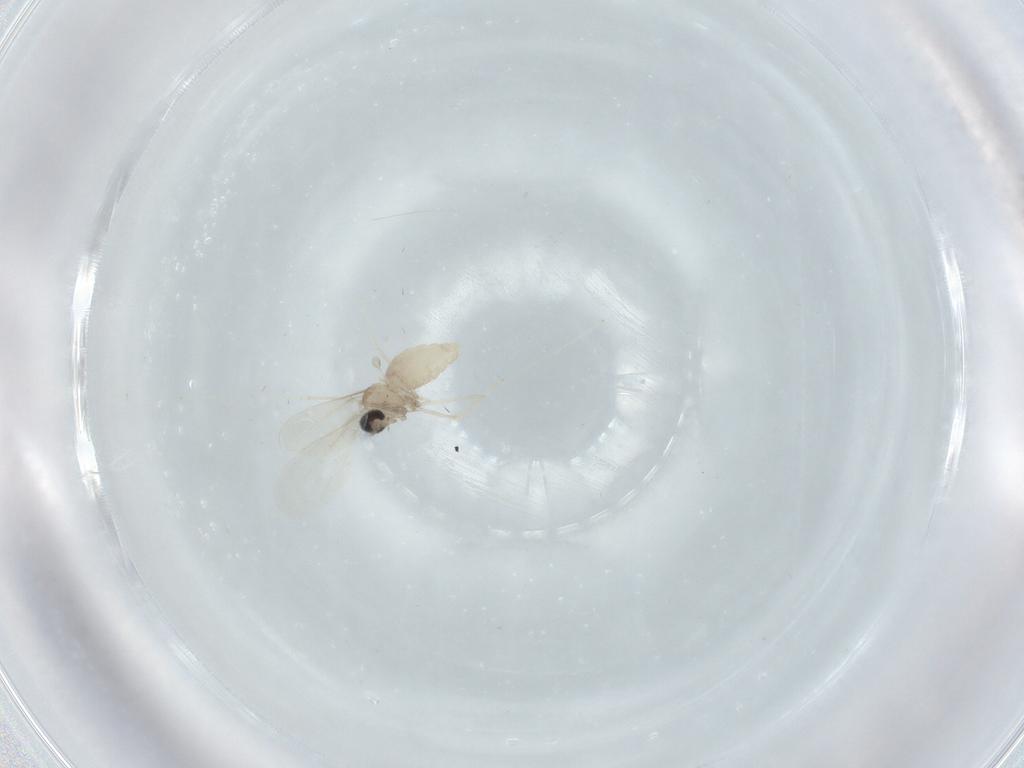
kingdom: Animalia
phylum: Arthropoda
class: Insecta
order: Diptera
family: Cecidomyiidae
